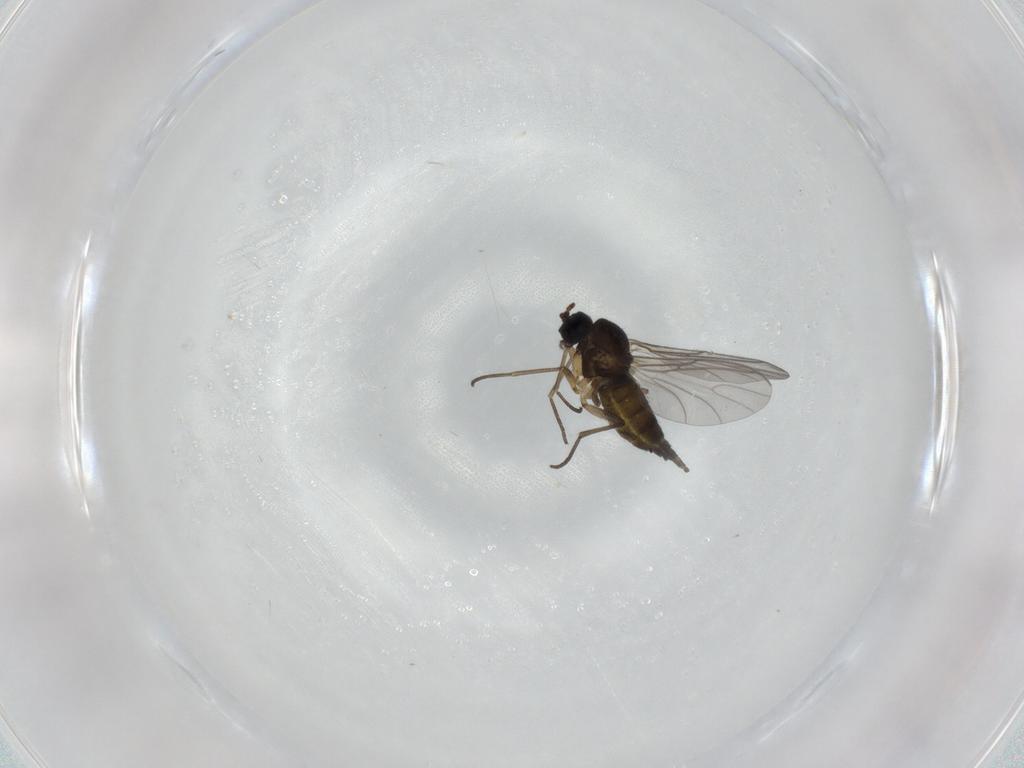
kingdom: Animalia
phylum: Arthropoda
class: Insecta
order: Diptera
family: Sciaridae
